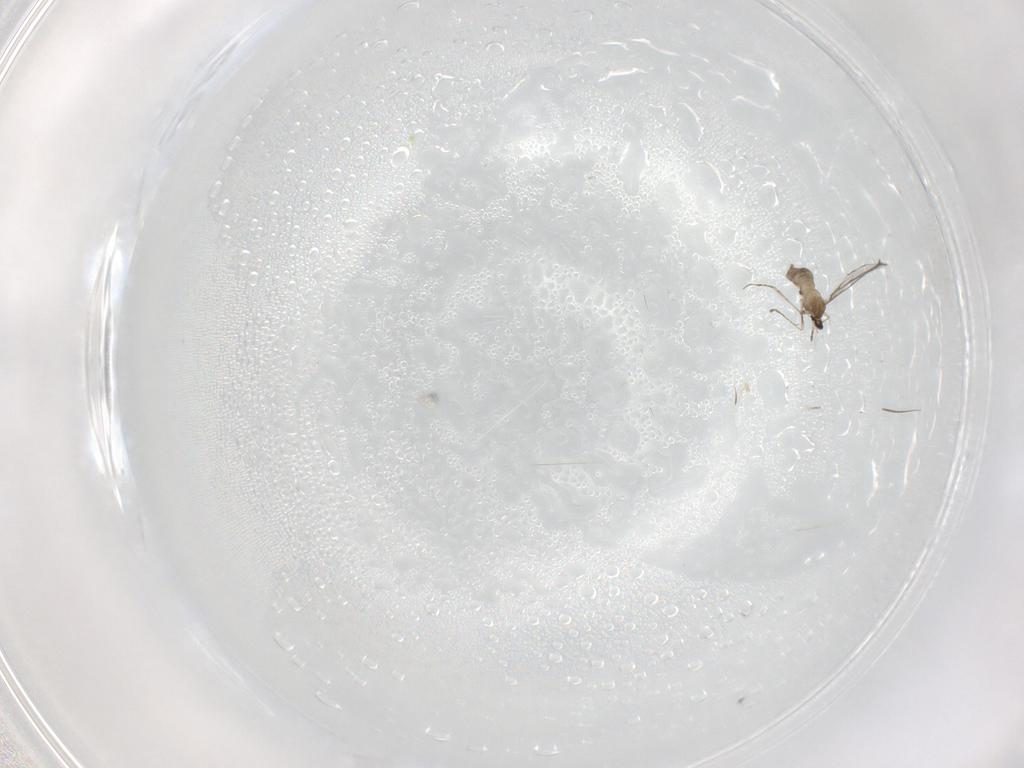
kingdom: Animalia
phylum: Arthropoda
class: Insecta
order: Diptera
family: Cecidomyiidae
